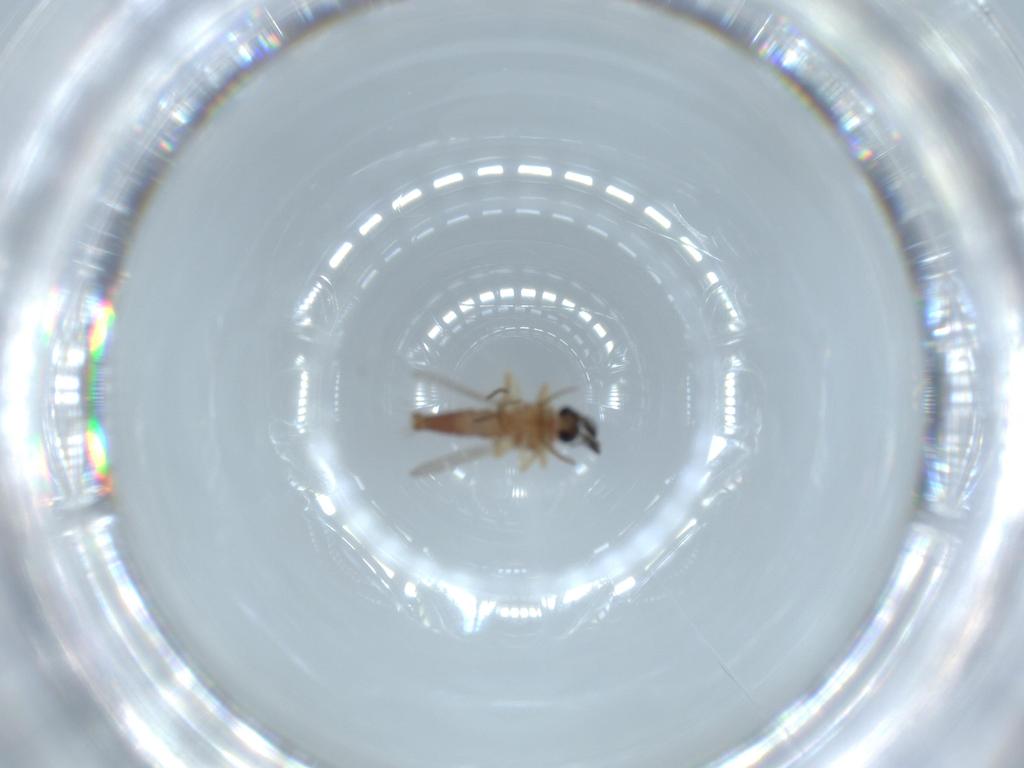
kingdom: Animalia
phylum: Arthropoda
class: Insecta
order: Diptera
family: Ceratopogonidae
